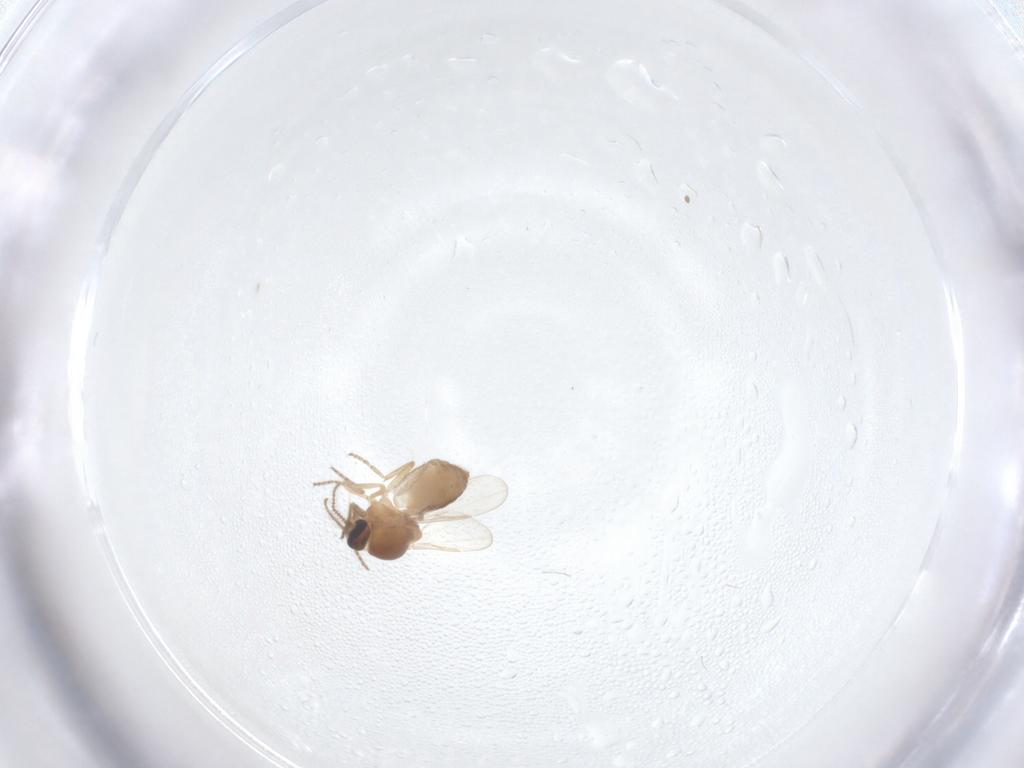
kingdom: Animalia
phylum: Arthropoda
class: Insecta
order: Diptera
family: Ceratopogonidae
